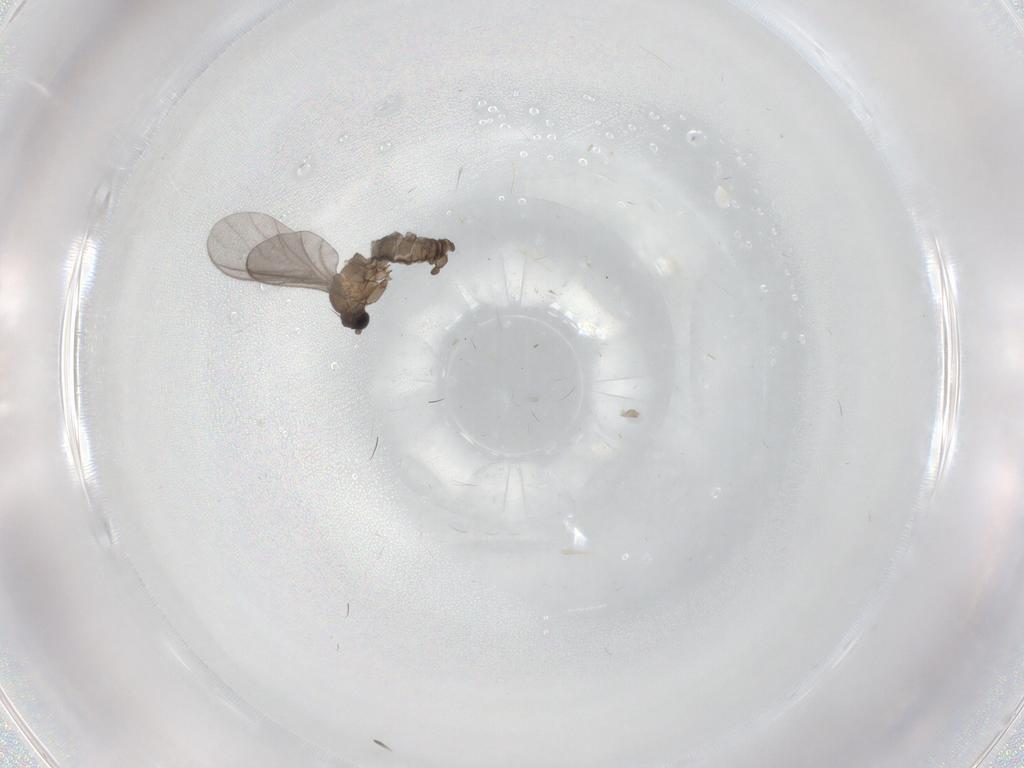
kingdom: Animalia
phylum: Arthropoda
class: Insecta
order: Diptera
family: Sciaridae
